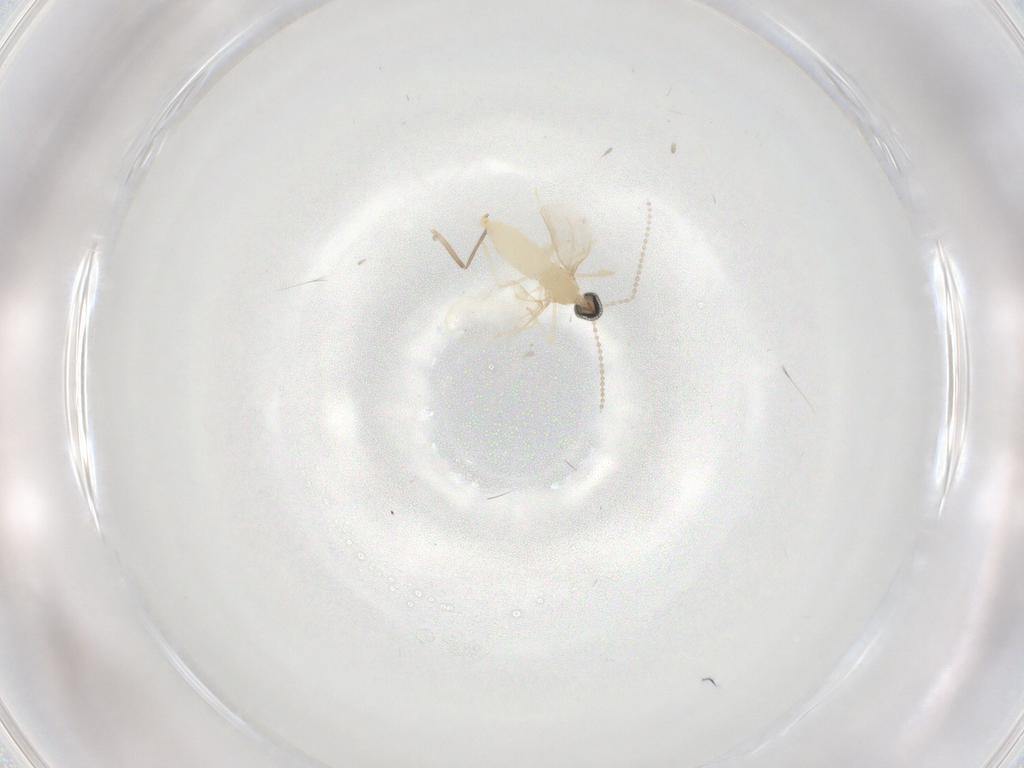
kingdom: Animalia
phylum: Arthropoda
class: Insecta
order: Diptera
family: Cecidomyiidae
